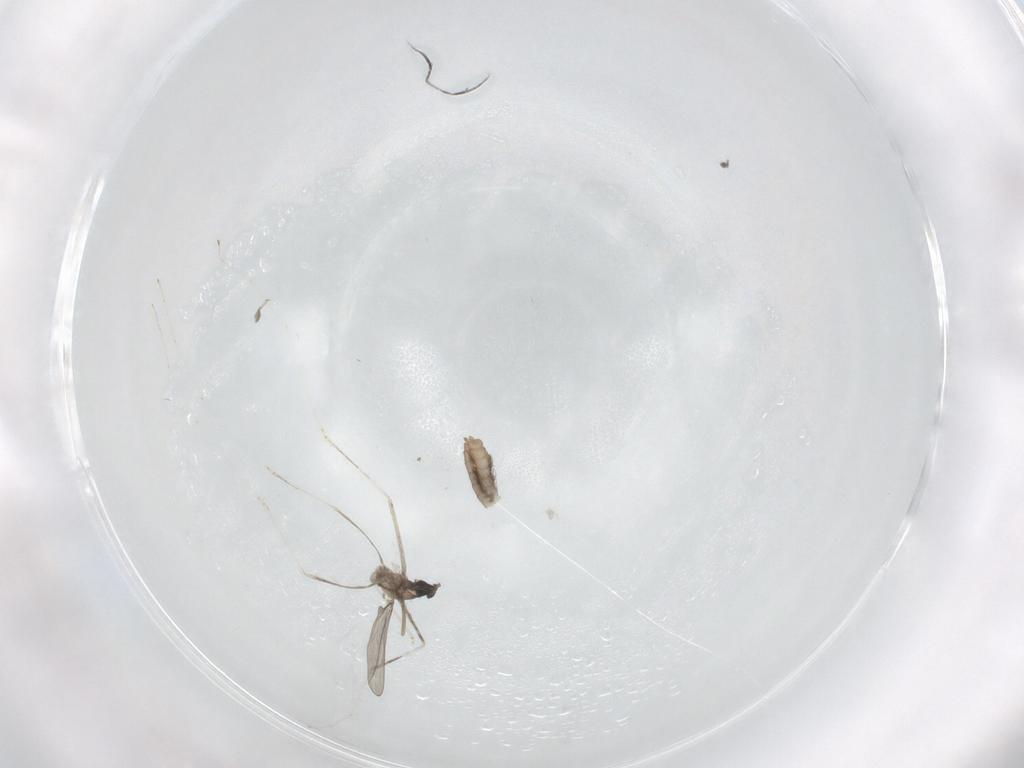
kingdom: Animalia
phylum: Arthropoda
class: Insecta
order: Diptera
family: Cecidomyiidae
